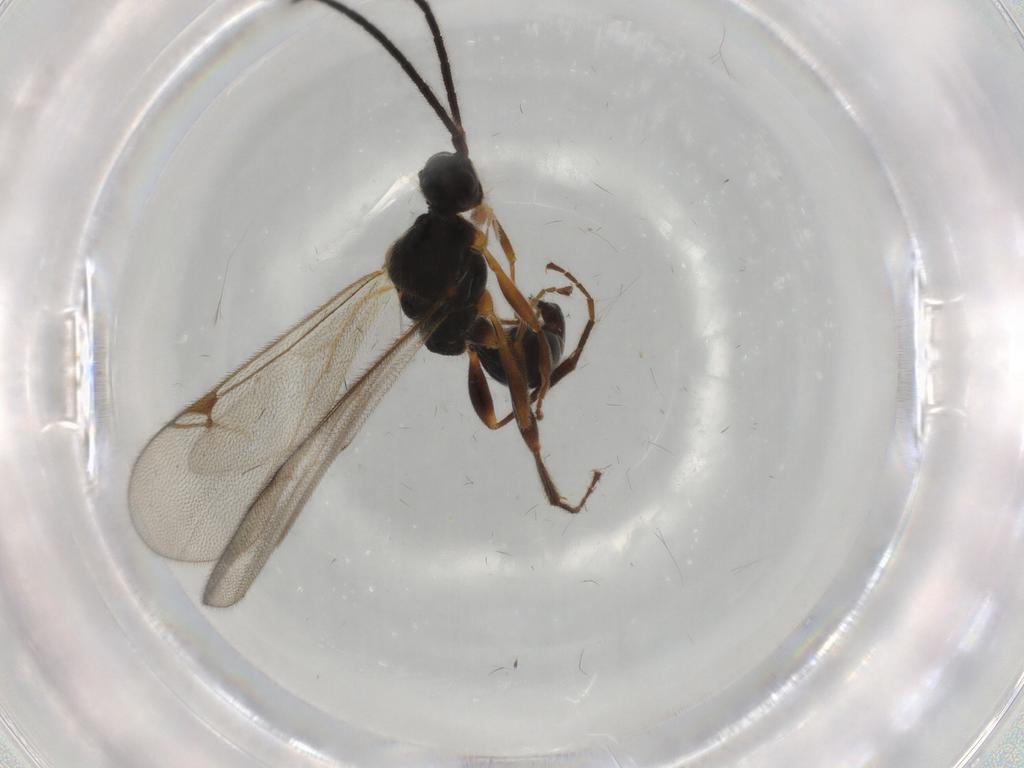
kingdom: Animalia
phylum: Arthropoda
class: Insecta
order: Hymenoptera
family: Proctotrupidae
